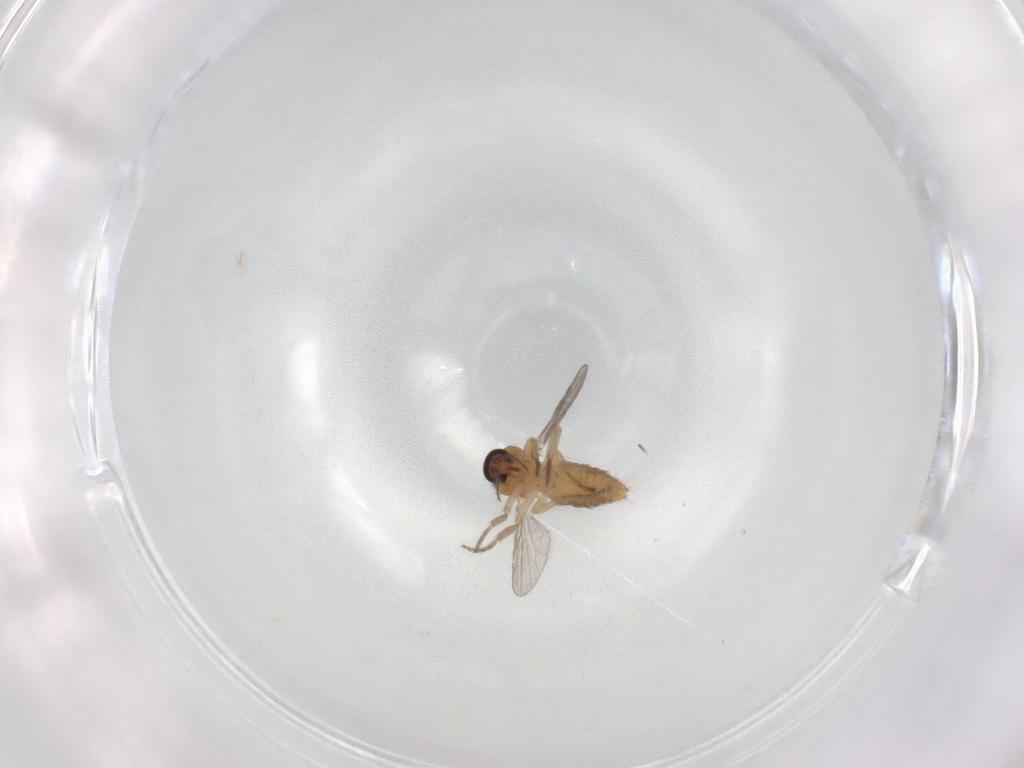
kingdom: Animalia
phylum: Arthropoda
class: Insecta
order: Diptera
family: Ceratopogonidae
